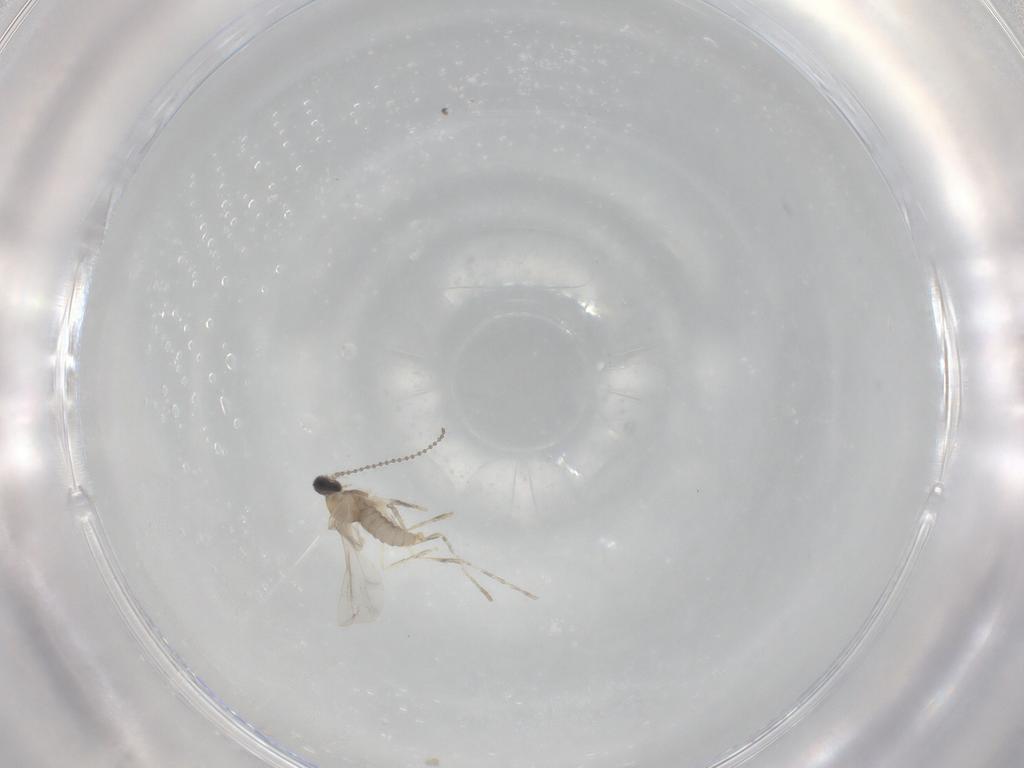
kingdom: Animalia
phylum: Arthropoda
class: Insecta
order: Diptera
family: Cecidomyiidae
